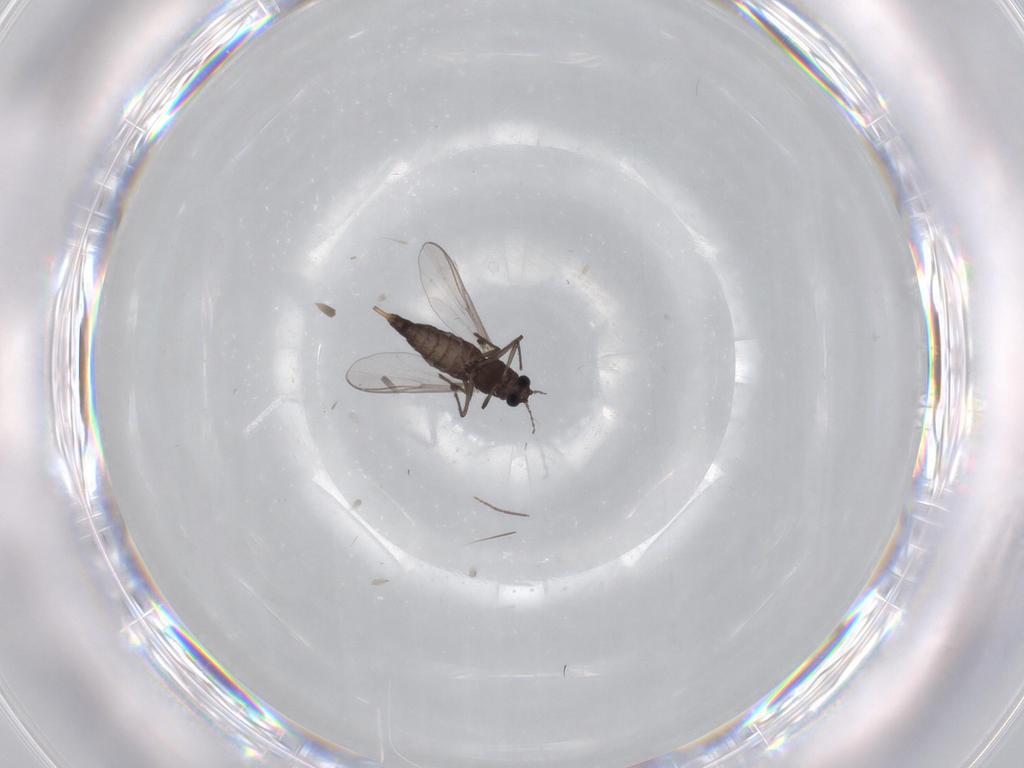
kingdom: Animalia
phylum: Arthropoda
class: Insecta
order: Diptera
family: Chironomidae
